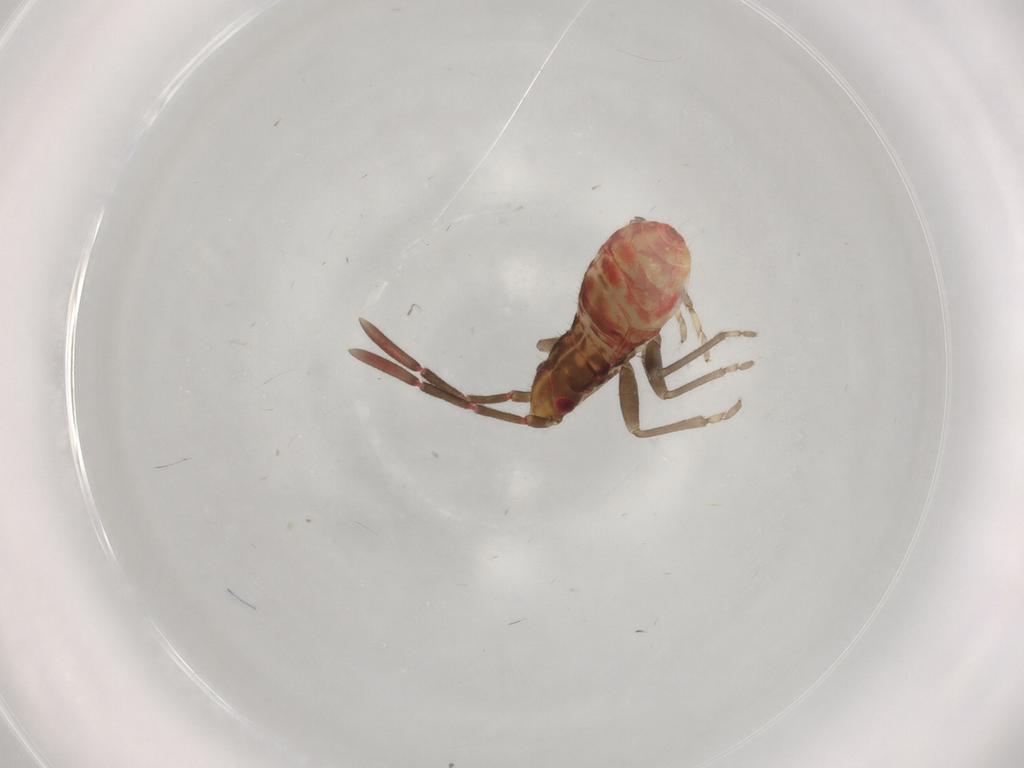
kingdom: Animalia
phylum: Arthropoda
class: Insecta
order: Hemiptera
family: Rhyparochromidae
